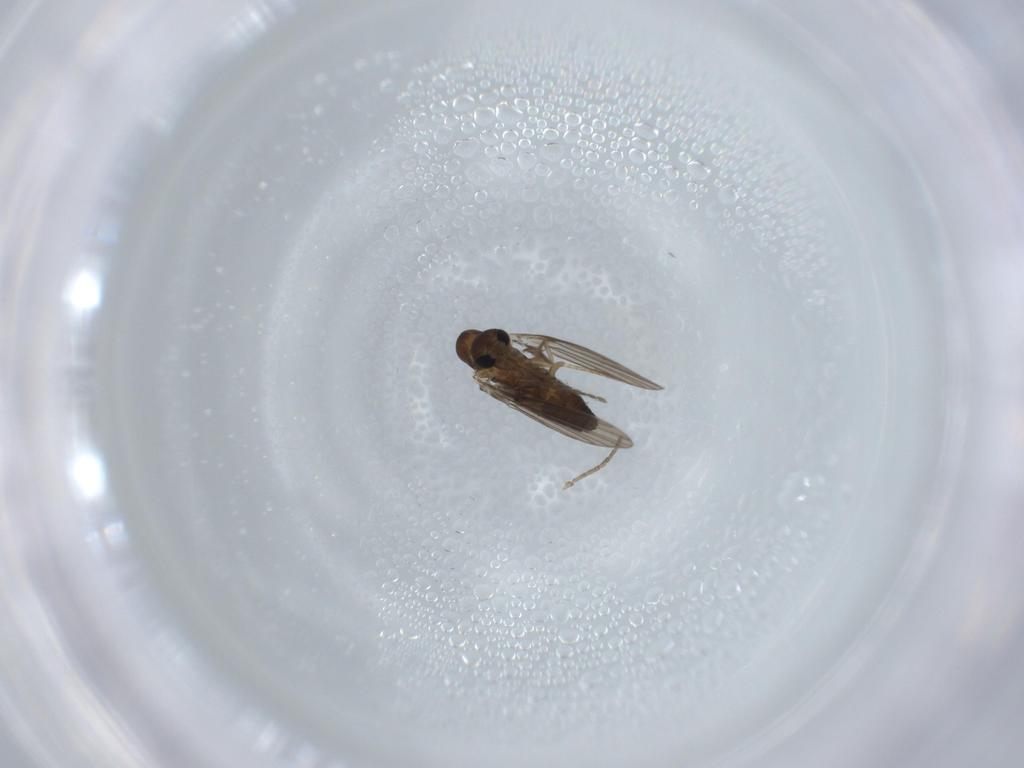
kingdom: Animalia
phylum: Arthropoda
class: Insecta
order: Diptera
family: Psychodidae
